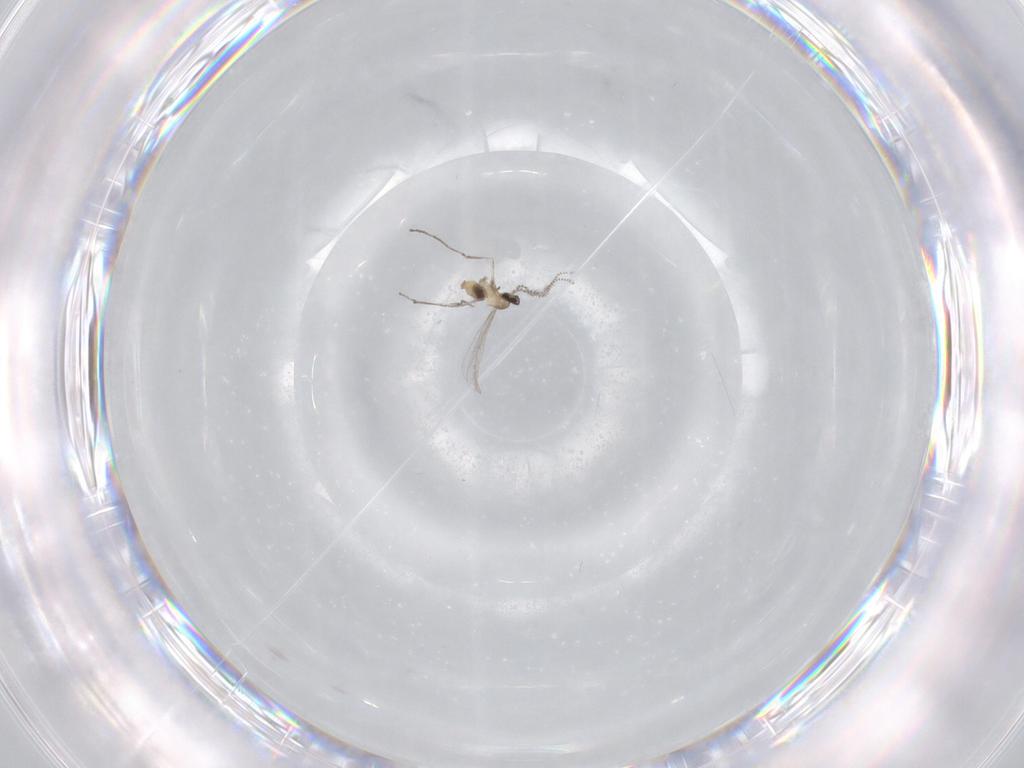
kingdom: Animalia
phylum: Arthropoda
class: Insecta
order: Diptera
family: Cecidomyiidae
